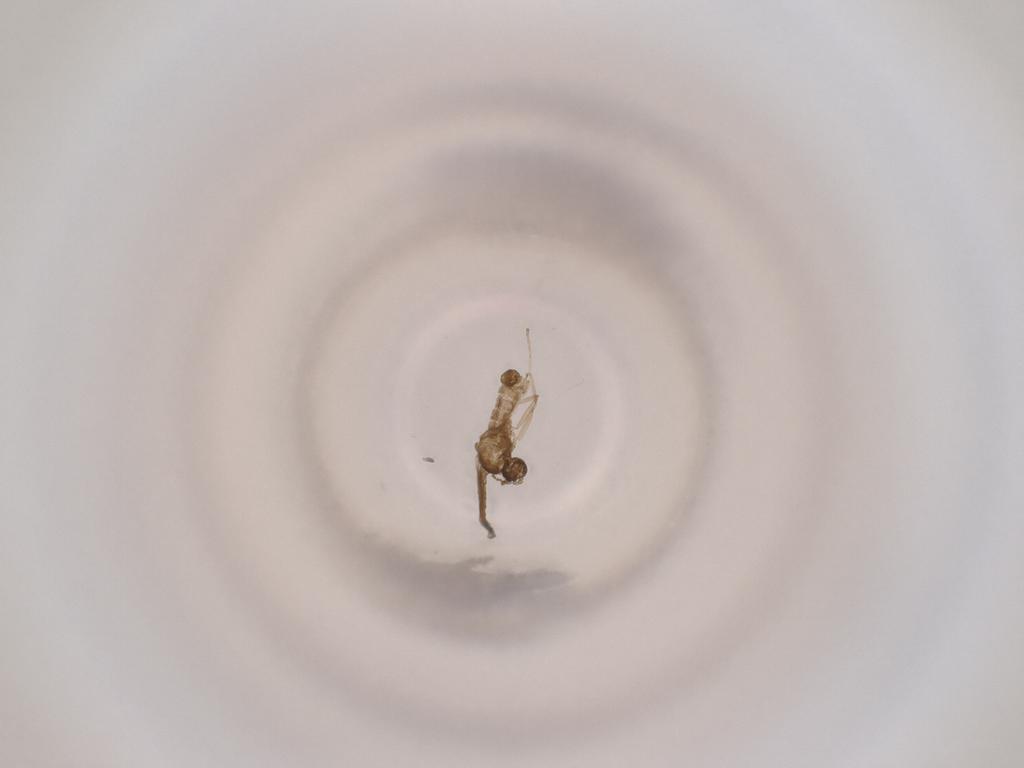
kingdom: Animalia
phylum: Arthropoda
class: Insecta
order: Diptera
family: Cecidomyiidae
